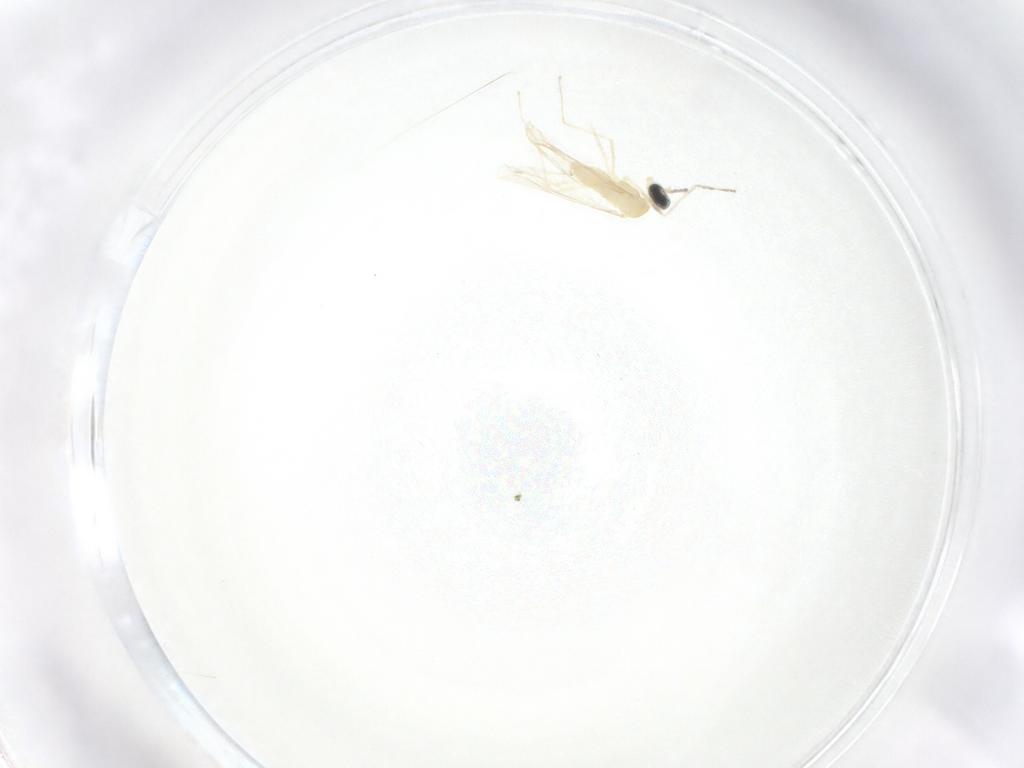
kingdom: Animalia
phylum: Arthropoda
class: Insecta
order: Diptera
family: Cecidomyiidae
